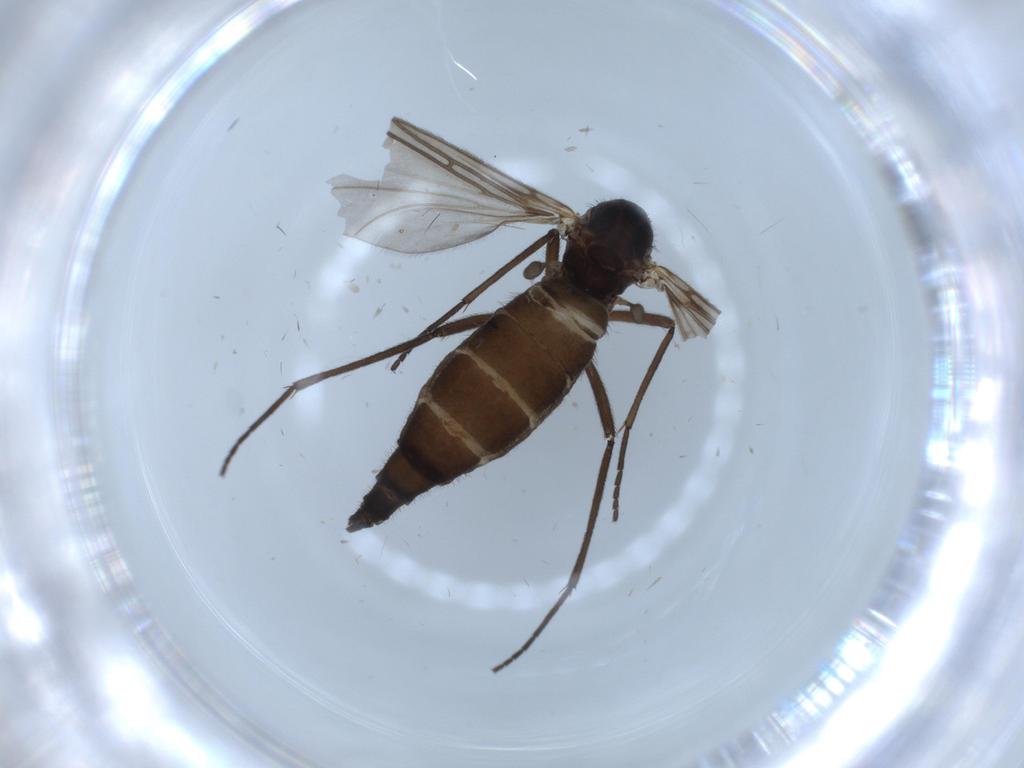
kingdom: Animalia
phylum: Arthropoda
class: Insecta
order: Diptera
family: Sciaridae
